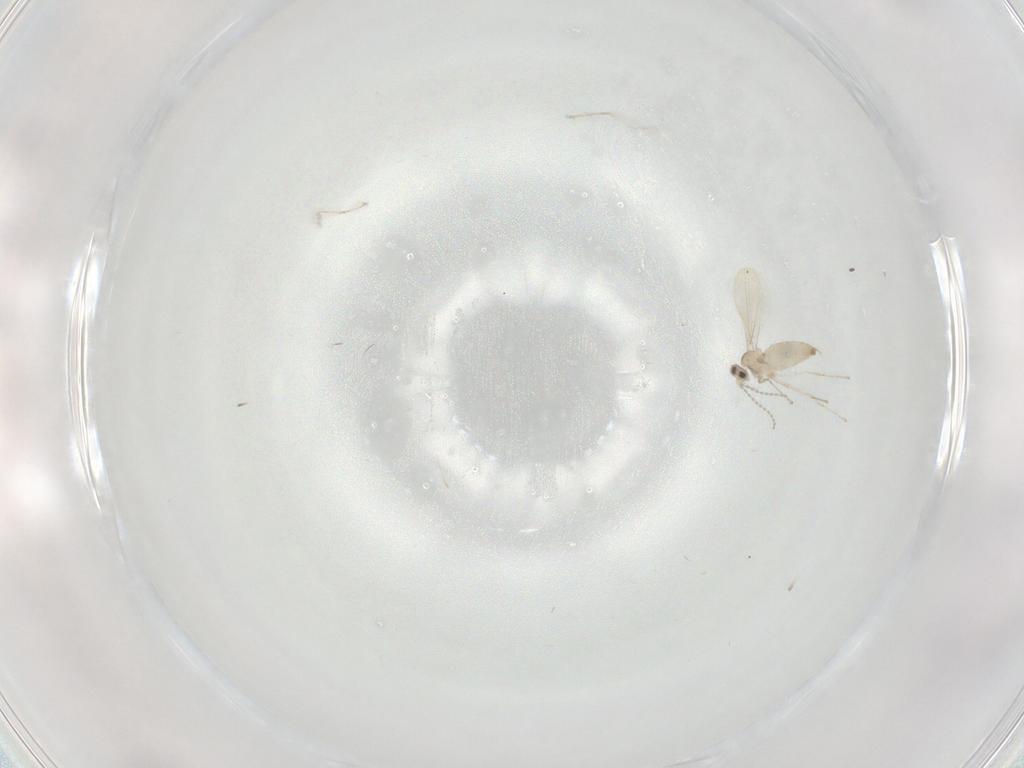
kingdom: Animalia
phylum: Arthropoda
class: Insecta
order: Diptera
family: Cecidomyiidae
